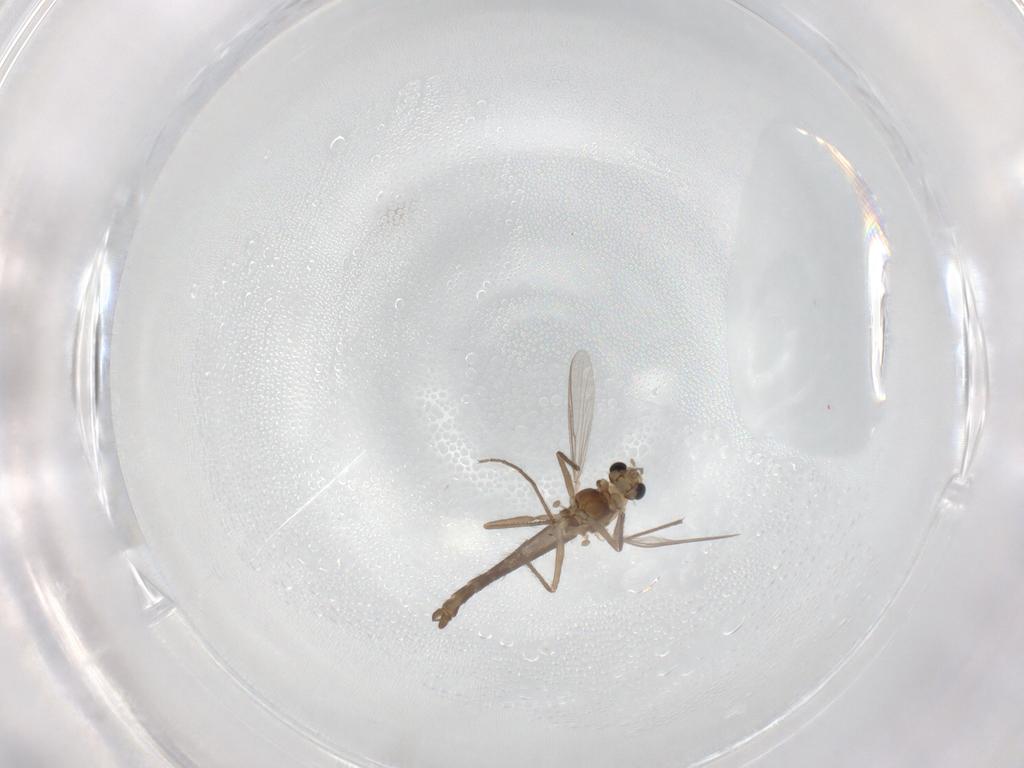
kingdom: Animalia
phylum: Arthropoda
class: Insecta
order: Diptera
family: Chironomidae
